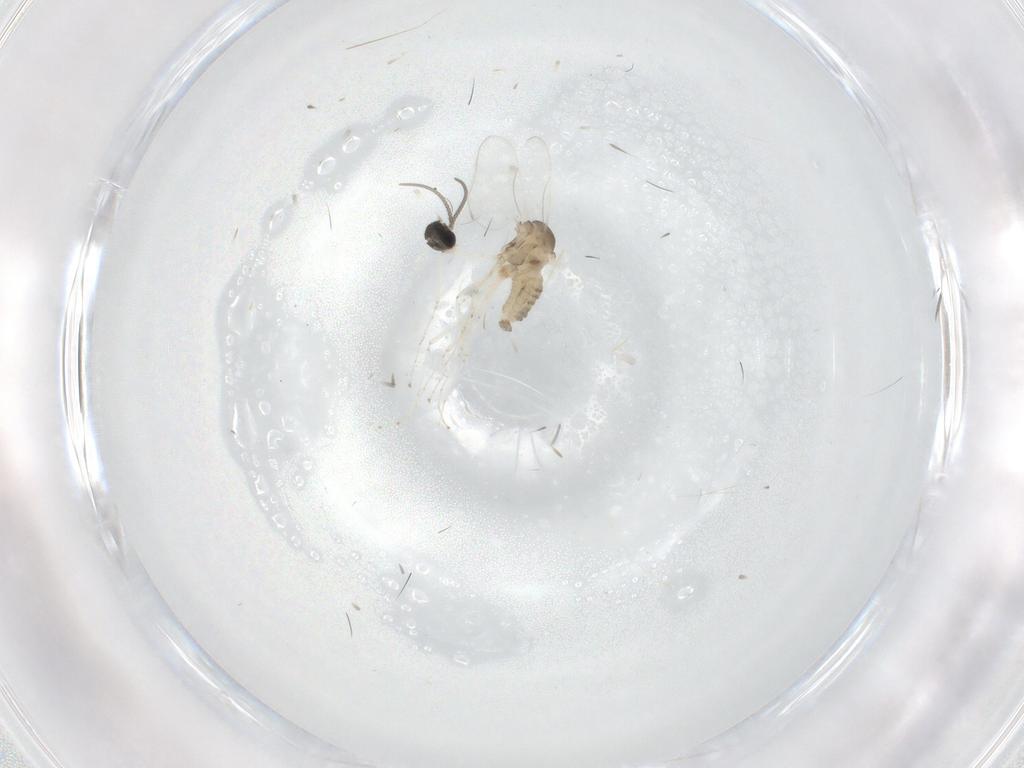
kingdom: Animalia
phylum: Arthropoda
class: Insecta
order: Diptera
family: Cecidomyiidae
